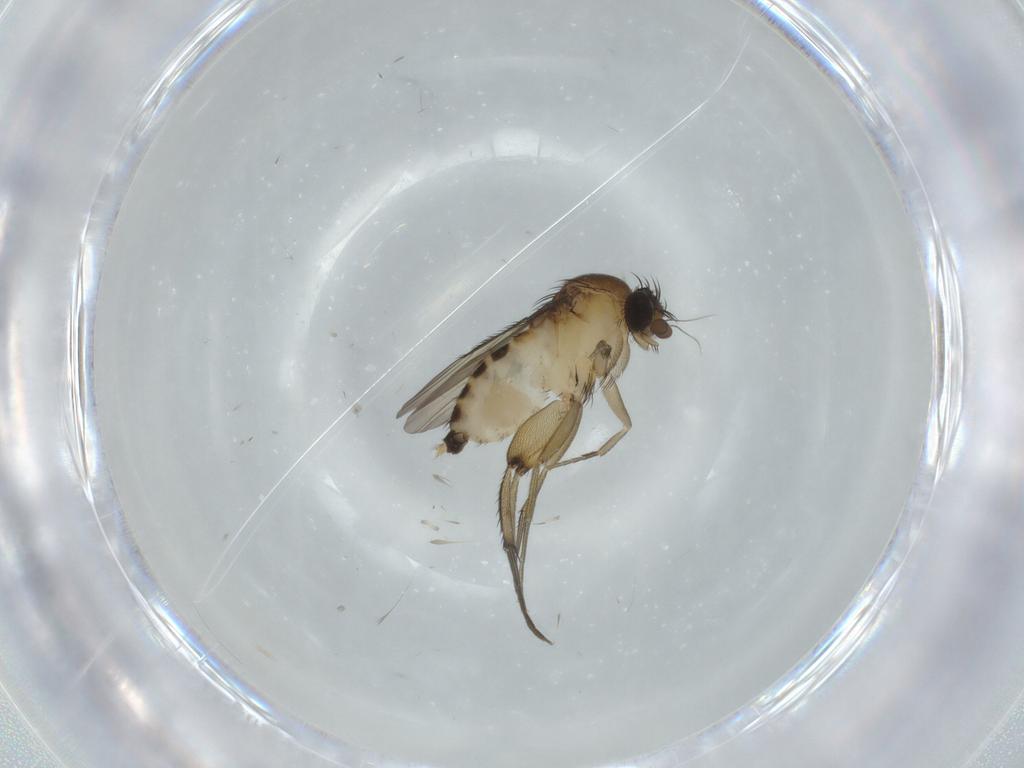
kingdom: Animalia
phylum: Arthropoda
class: Insecta
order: Diptera
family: Phoridae
